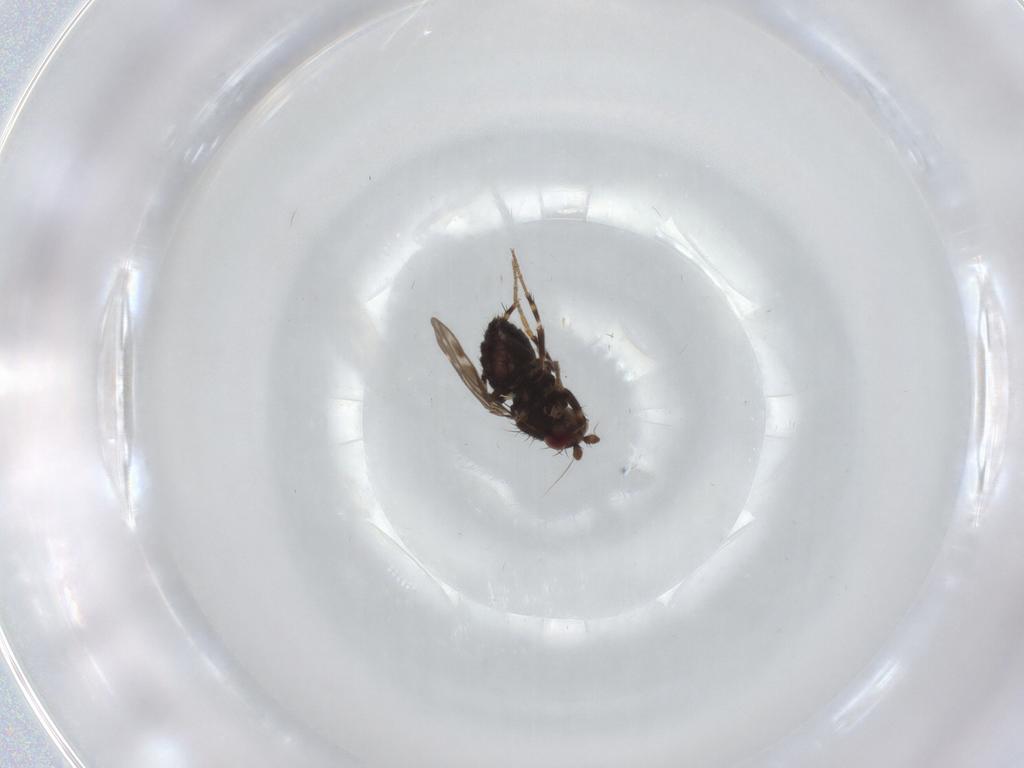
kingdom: Animalia
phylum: Arthropoda
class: Insecta
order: Diptera
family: Sphaeroceridae
